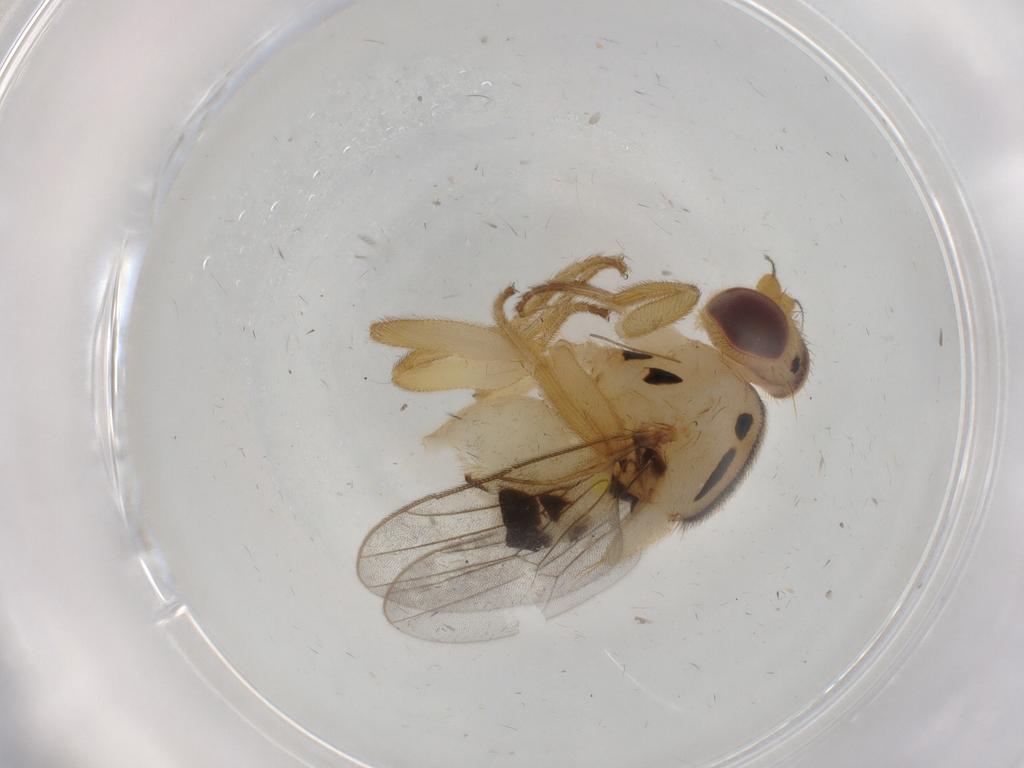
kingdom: Animalia
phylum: Arthropoda
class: Insecta
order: Diptera
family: Chloropidae
